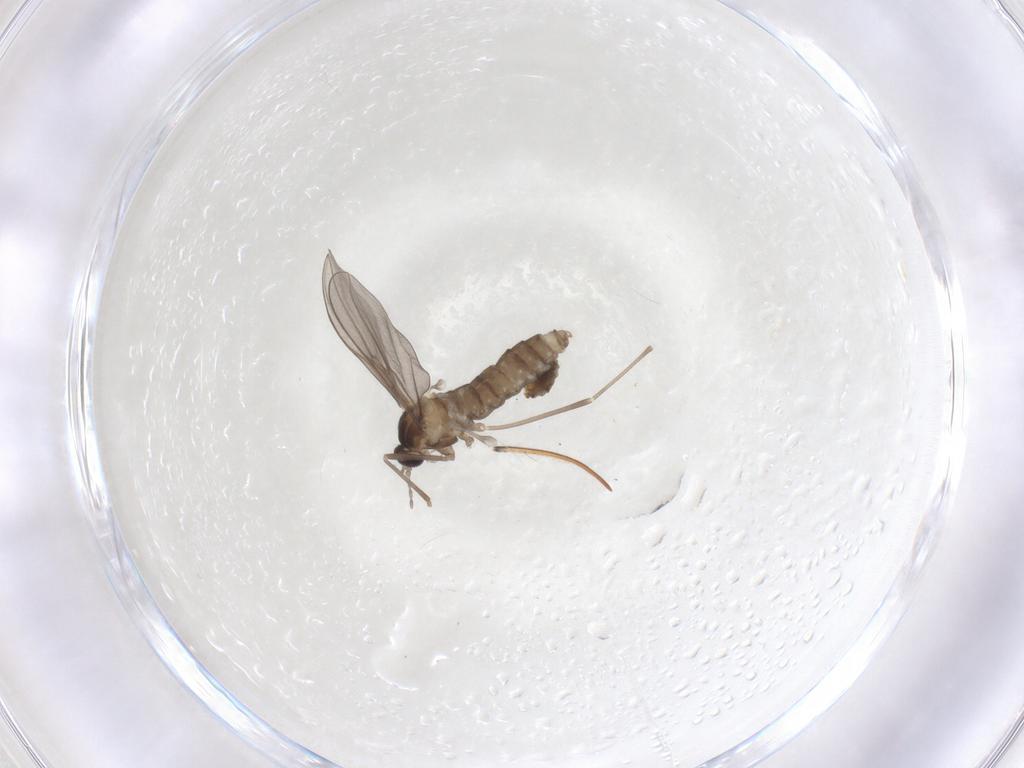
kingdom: Animalia
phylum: Arthropoda
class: Insecta
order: Diptera
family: Cecidomyiidae
